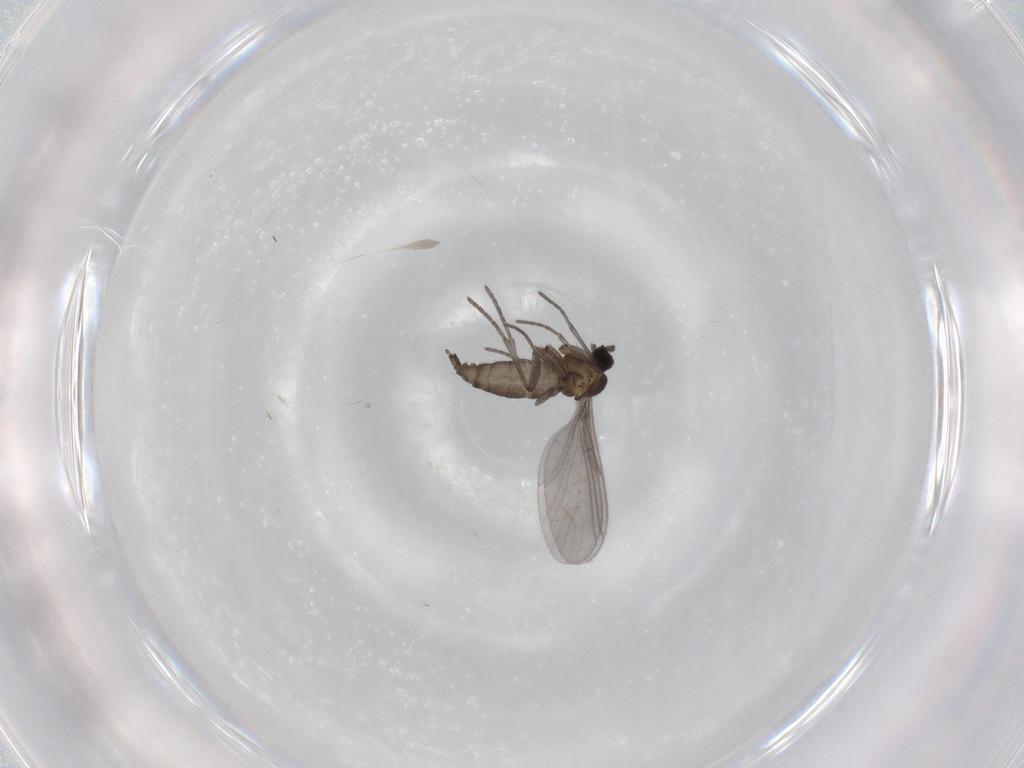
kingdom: Animalia
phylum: Arthropoda
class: Insecta
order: Diptera
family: Sciaridae
